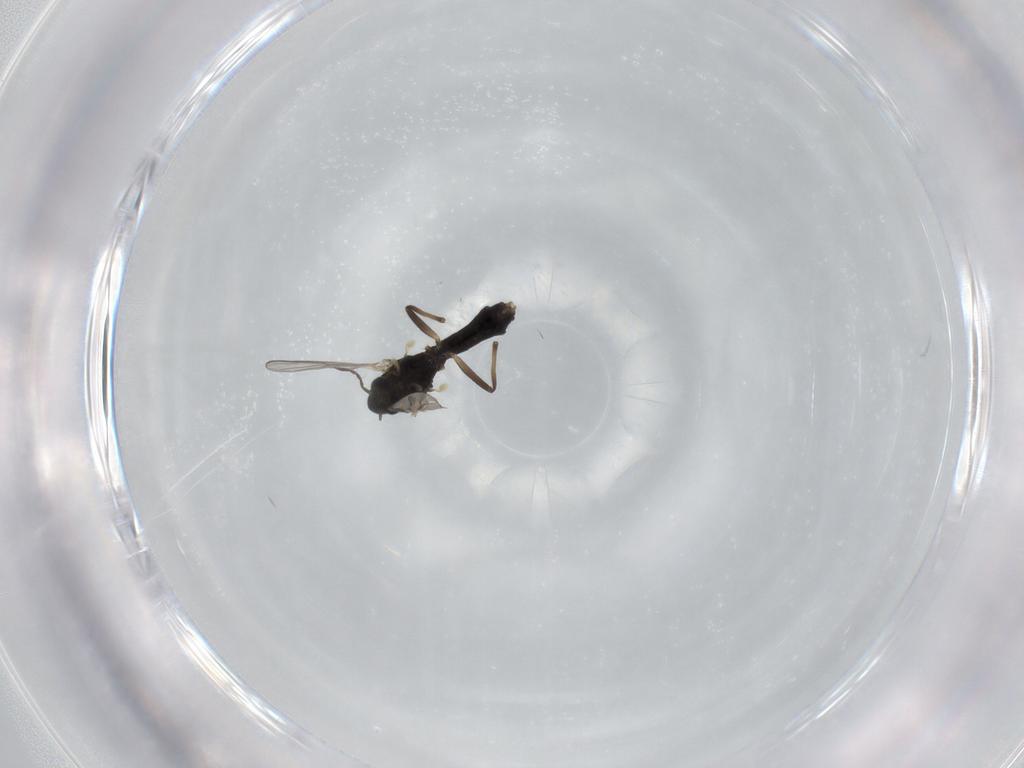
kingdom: Animalia
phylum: Arthropoda
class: Insecta
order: Diptera
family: Chironomidae
